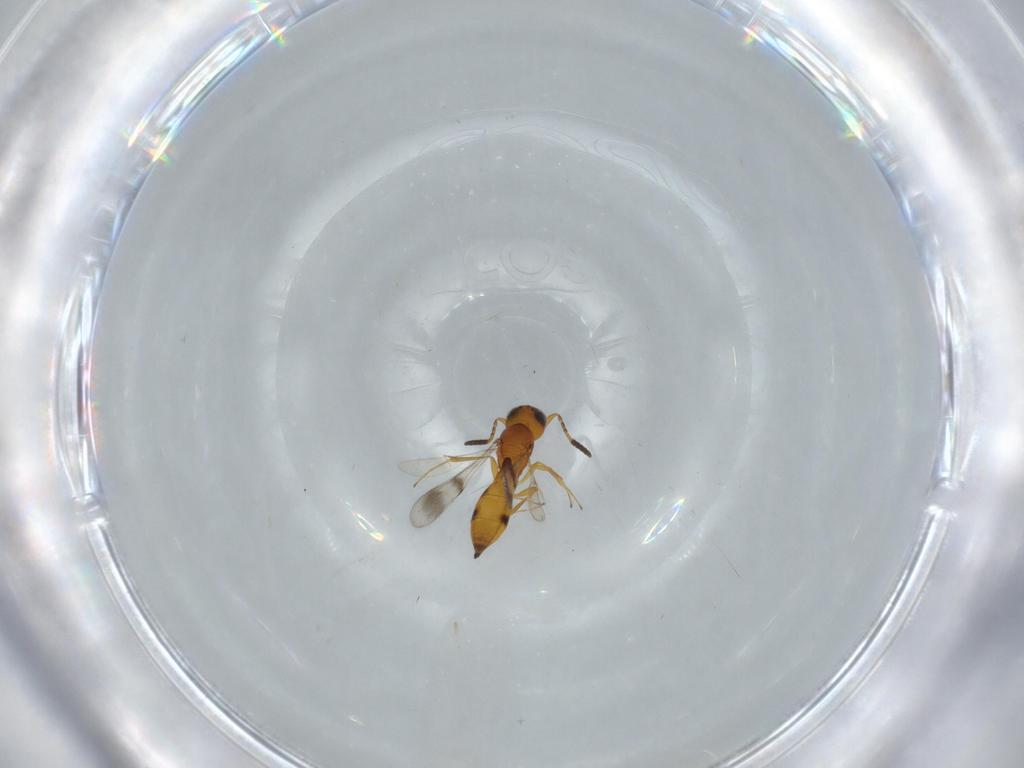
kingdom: Animalia
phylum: Arthropoda
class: Insecta
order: Hymenoptera
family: Scelionidae
